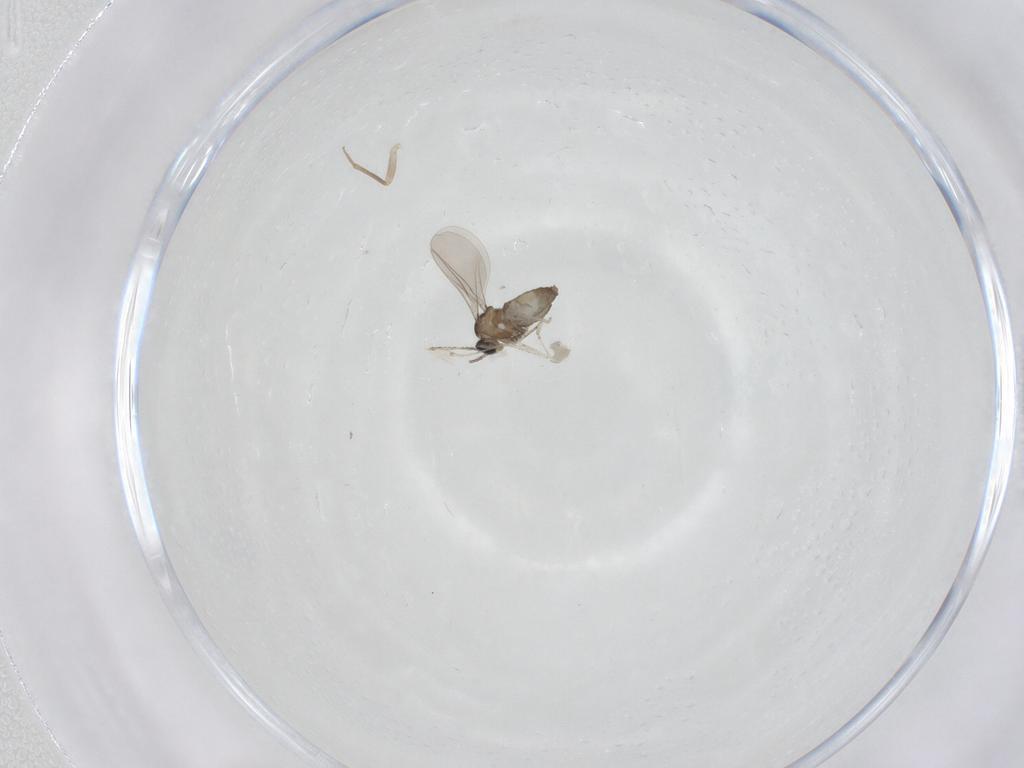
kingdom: Animalia
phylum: Arthropoda
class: Insecta
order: Diptera
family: Cecidomyiidae
